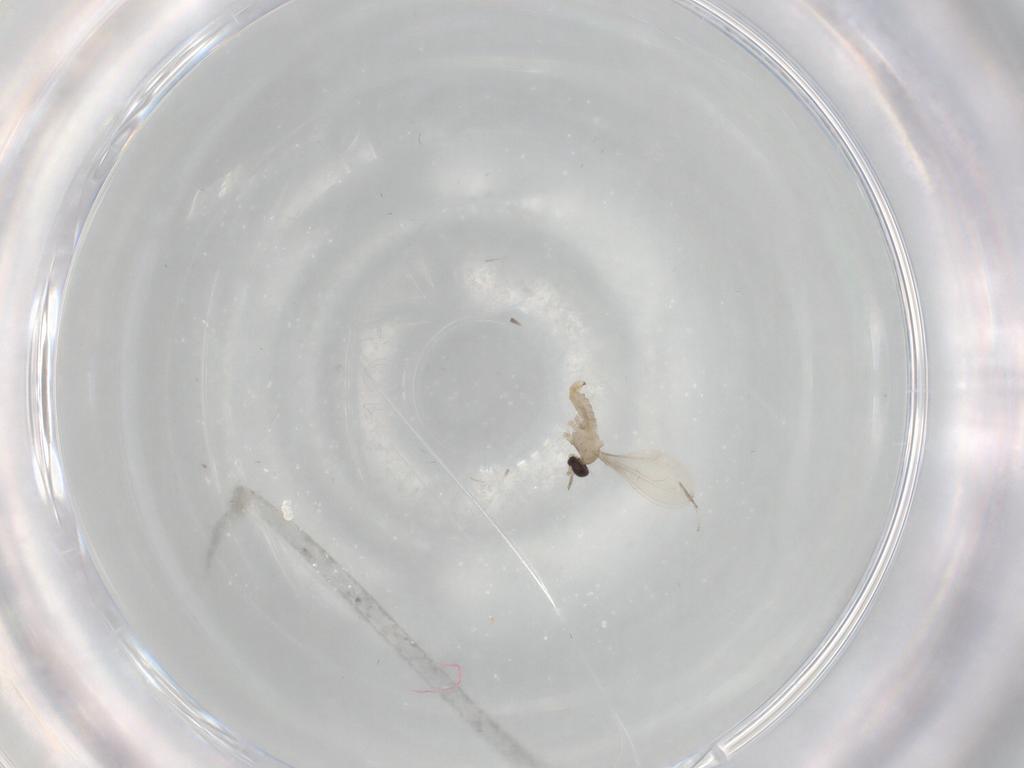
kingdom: Animalia
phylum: Arthropoda
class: Insecta
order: Diptera
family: Cecidomyiidae
